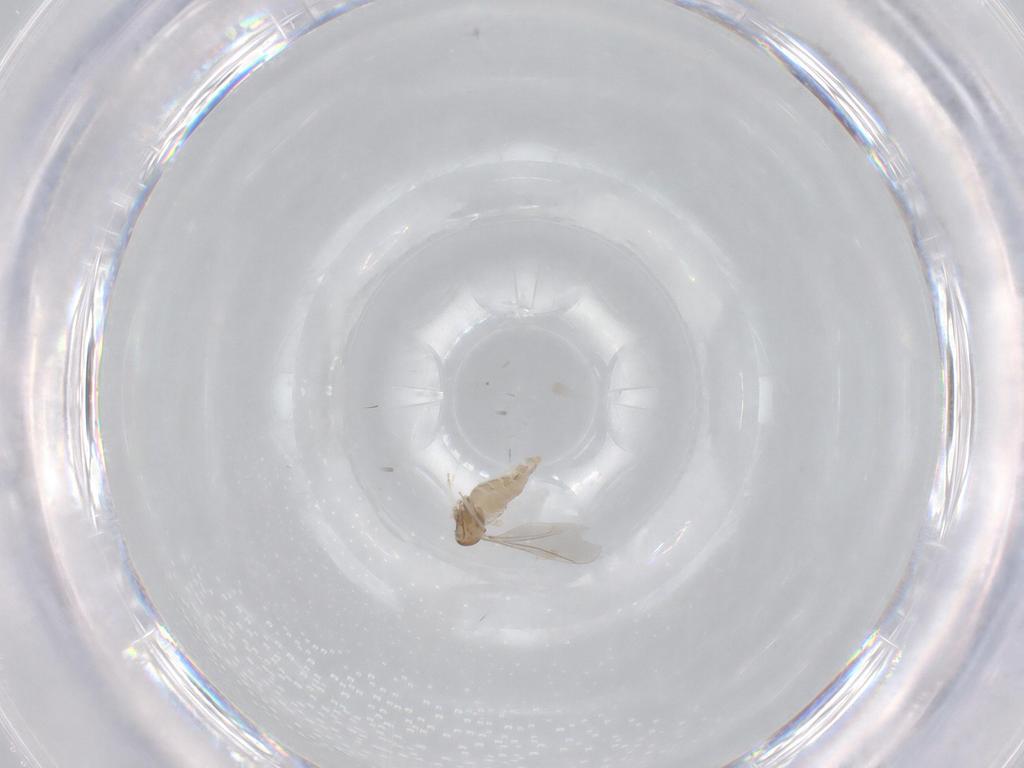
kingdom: Animalia
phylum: Arthropoda
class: Insecta
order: Diptera
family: Cecidomyiidae
